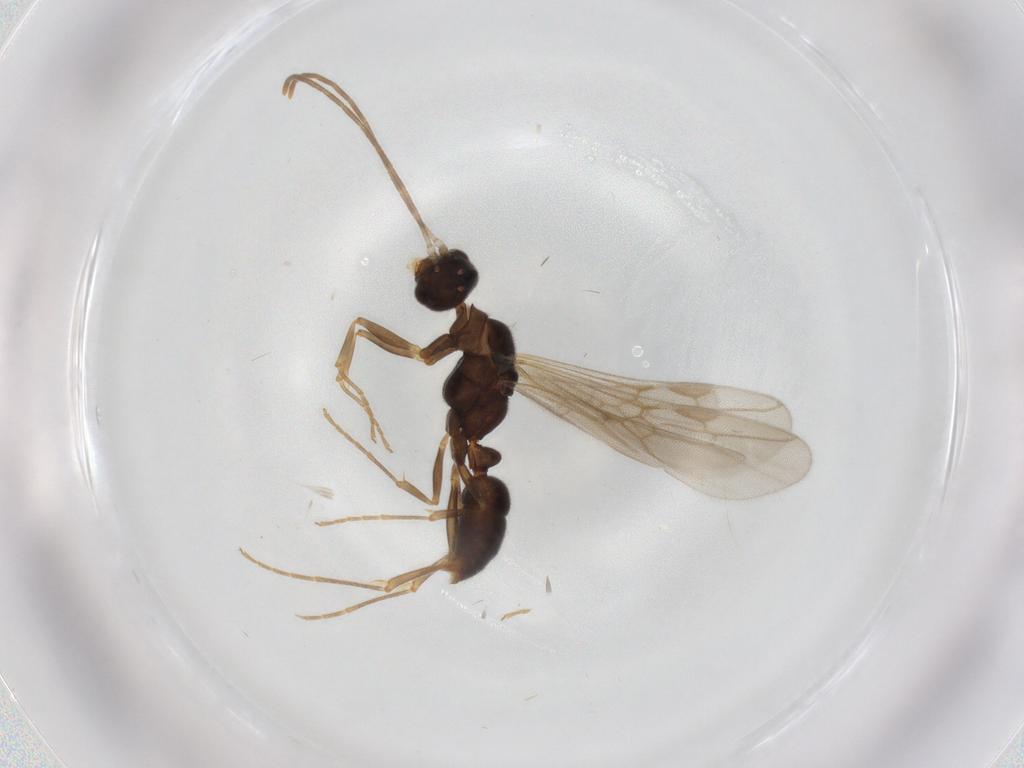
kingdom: Animalia
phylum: Arthropoda
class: Insecta
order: Hymenoptera
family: Formicidae
